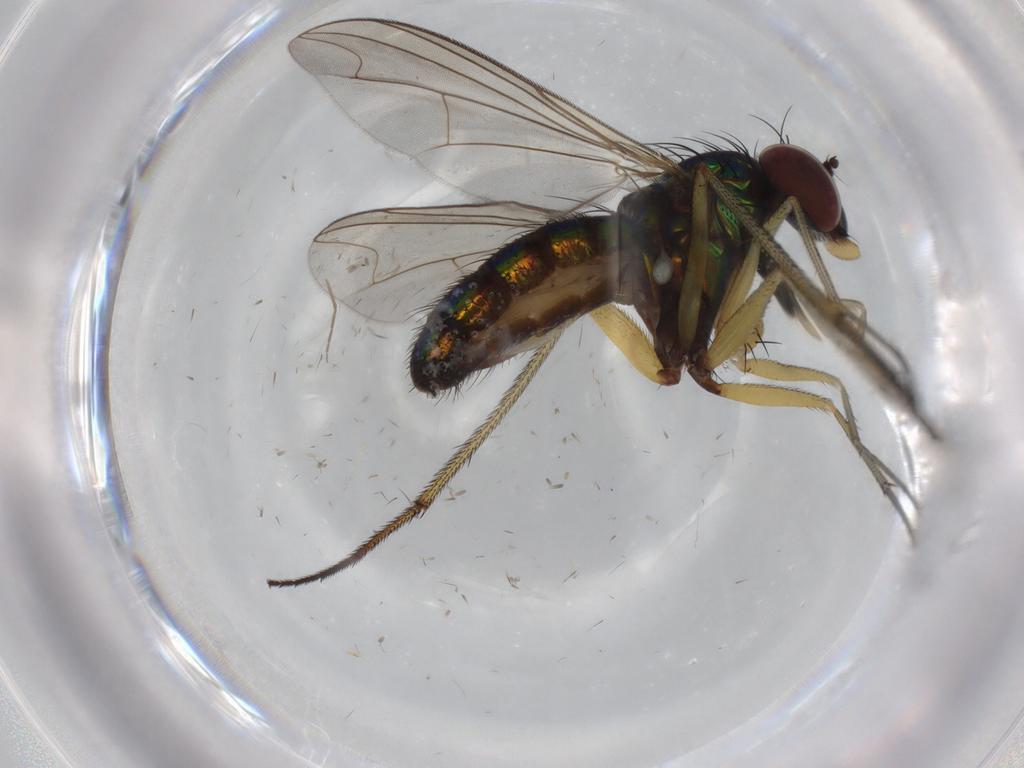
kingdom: Animalia
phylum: Arthropoda
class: Insecta
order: Diptera
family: Dolichopodidae
